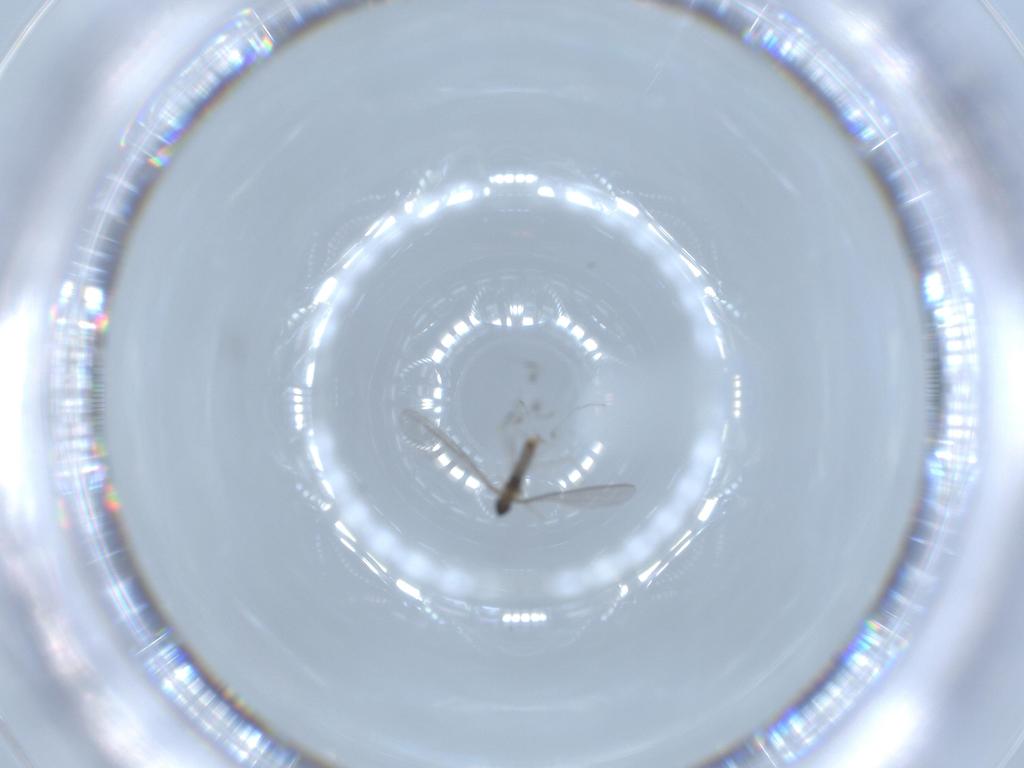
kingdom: Animalia
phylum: Arthropoda
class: Insecta
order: Diptera
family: Cecidomyiidae
